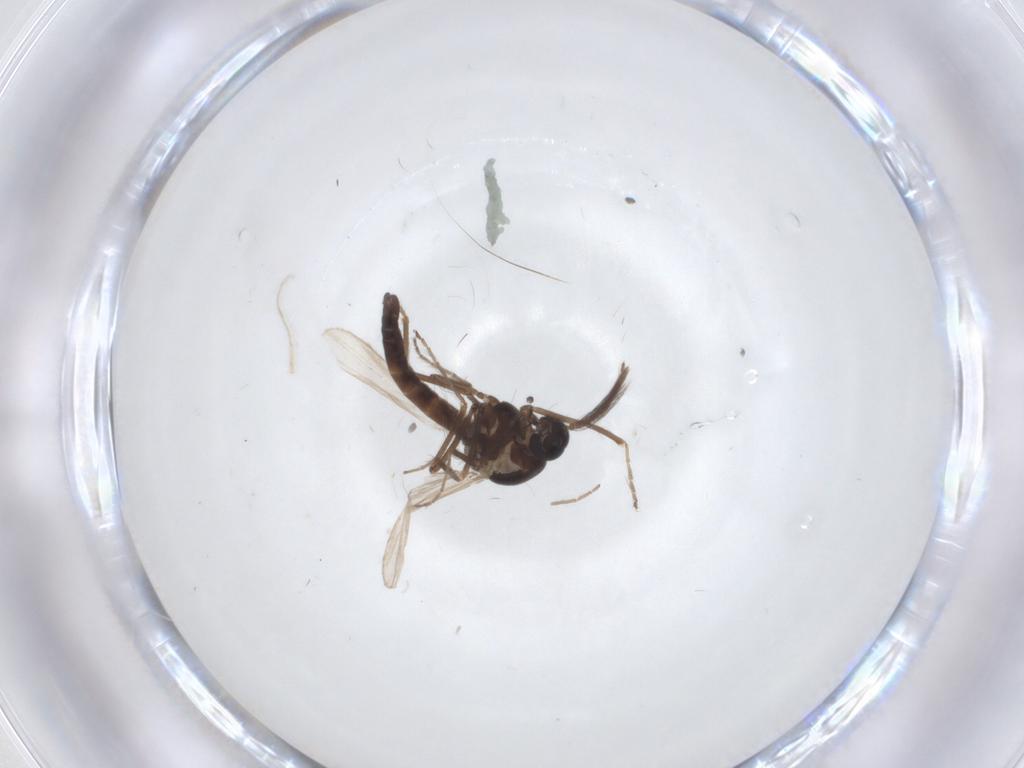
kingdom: Animalia
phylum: Arthropoda
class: Insecta
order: Diptera
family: Ceratopogonidae
